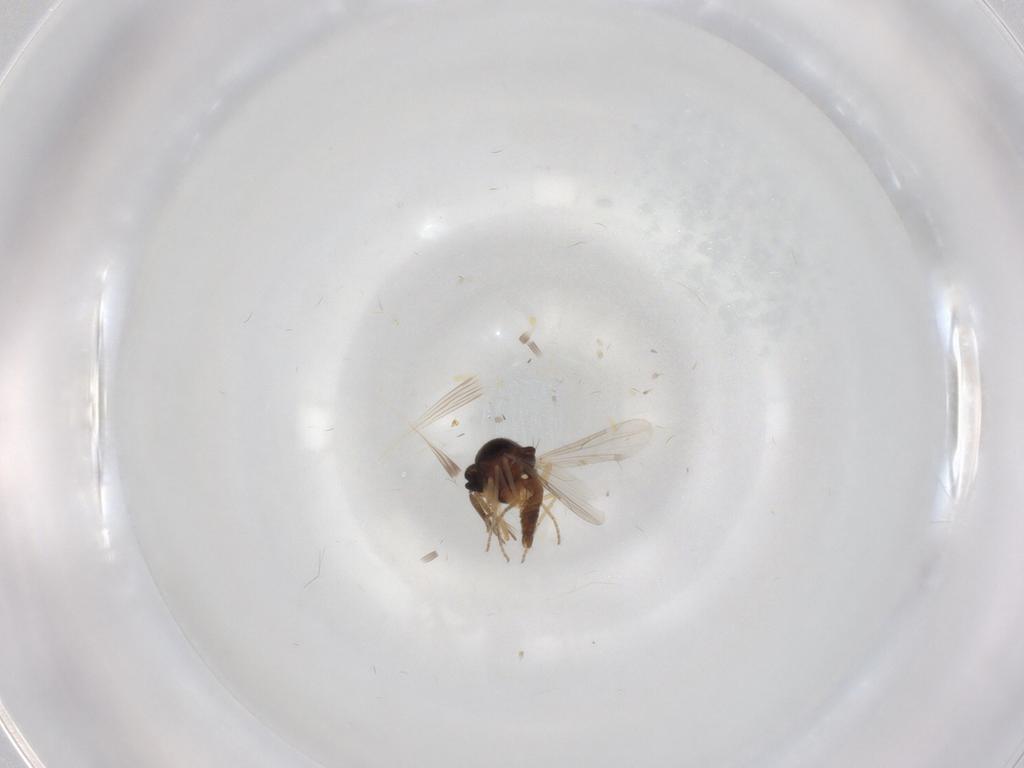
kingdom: Animalia
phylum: Arthropoda
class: Insecta
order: Diptera
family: Ceratopogonidae
